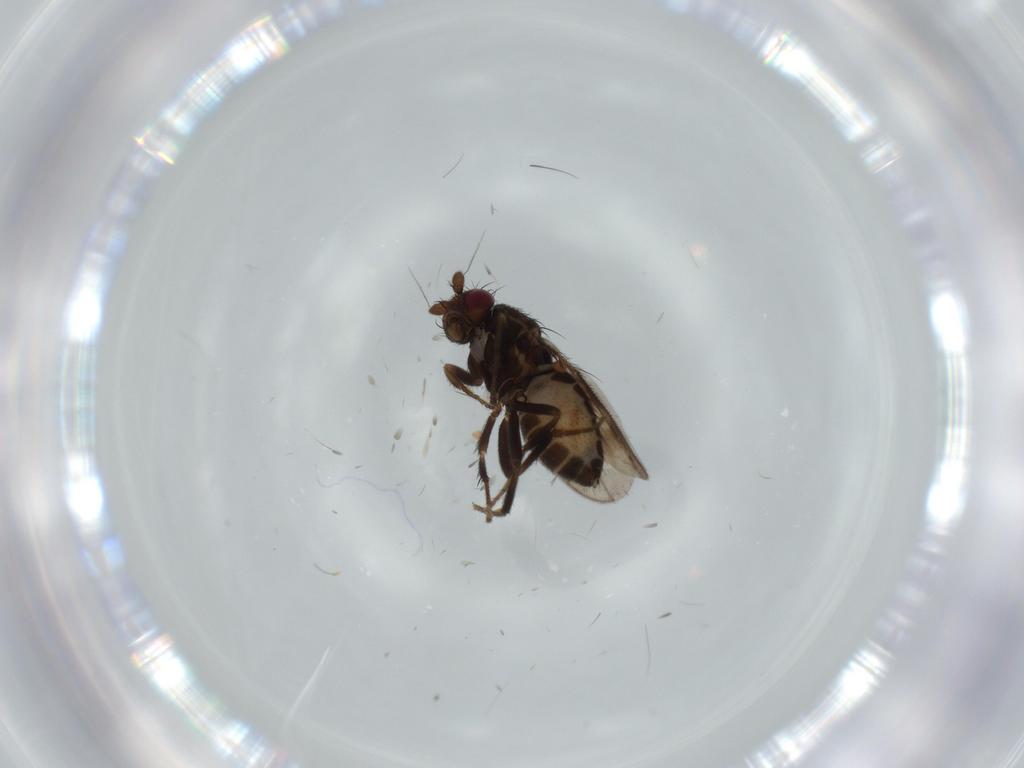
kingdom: Animalia
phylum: Arthropoda
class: Insecta
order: Diptera
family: Sphaeroceridae
